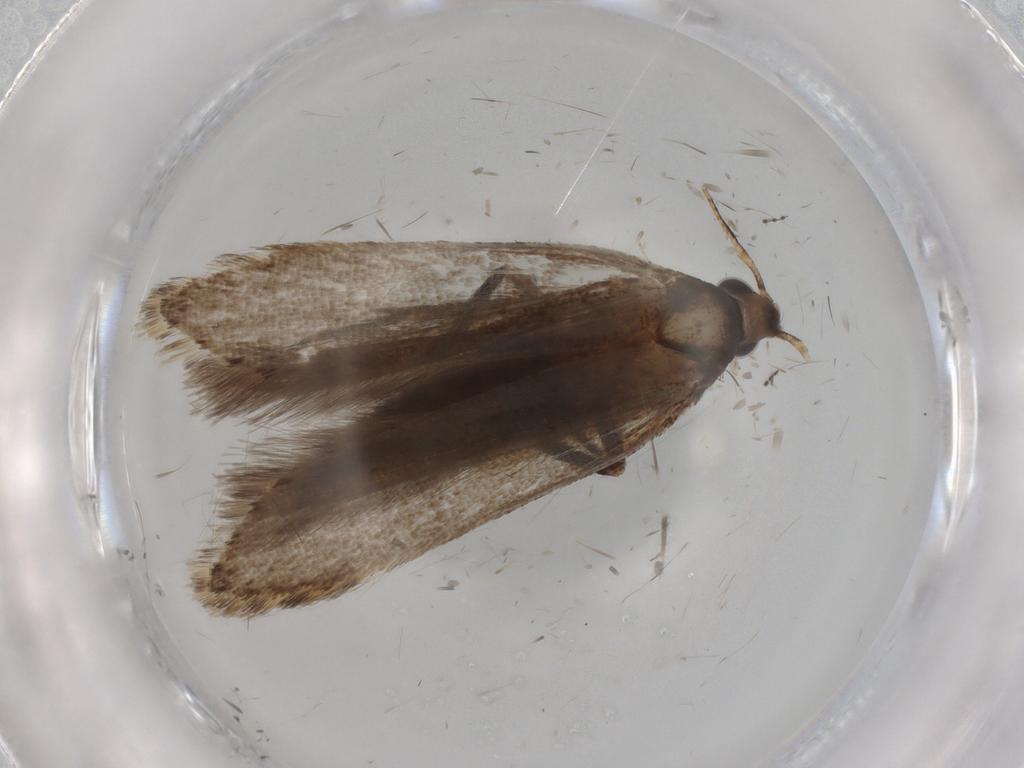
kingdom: Animalia
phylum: Arthropoda
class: Insecta
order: Lepidoptera
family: Gelechiidae
